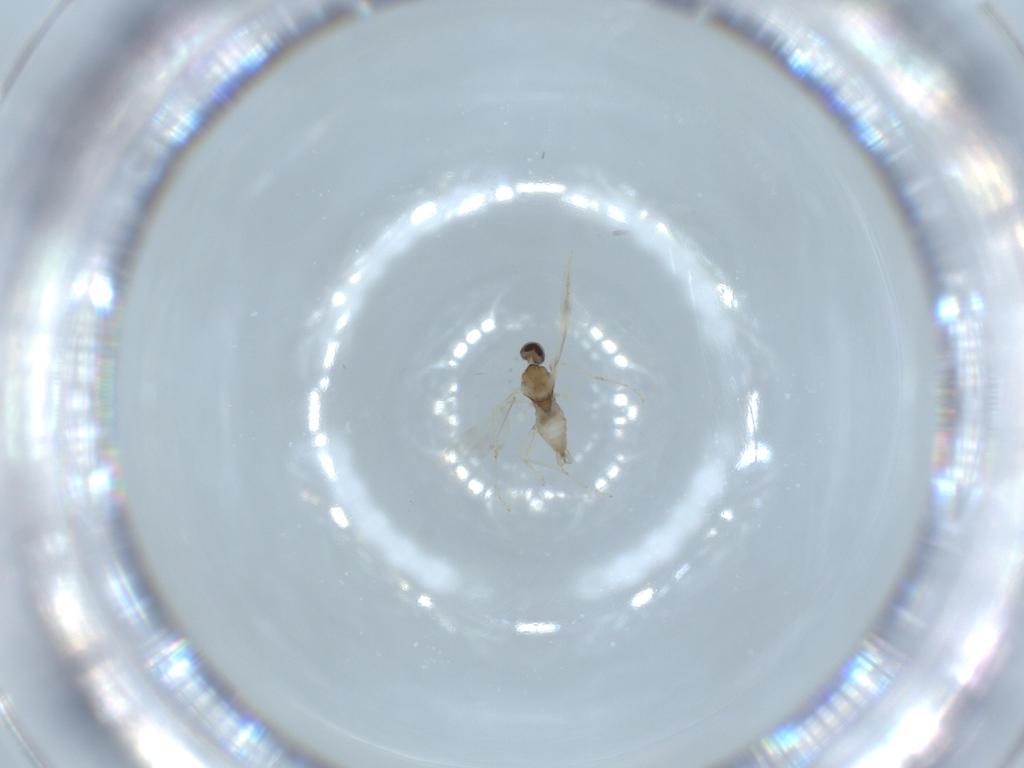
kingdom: Animalia
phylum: Arthropoda
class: Insecta
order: Diptera
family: Cecidomyiidae
